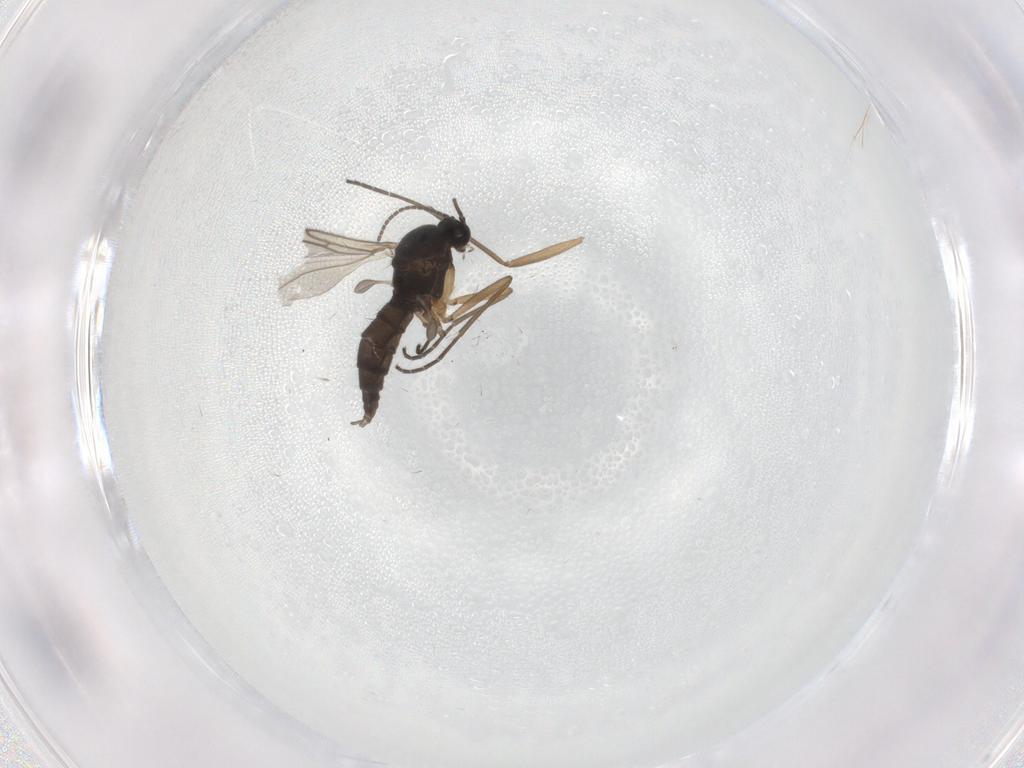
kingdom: Animalia
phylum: Arthropoda
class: Insecta
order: Diptera
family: Sciaridae
